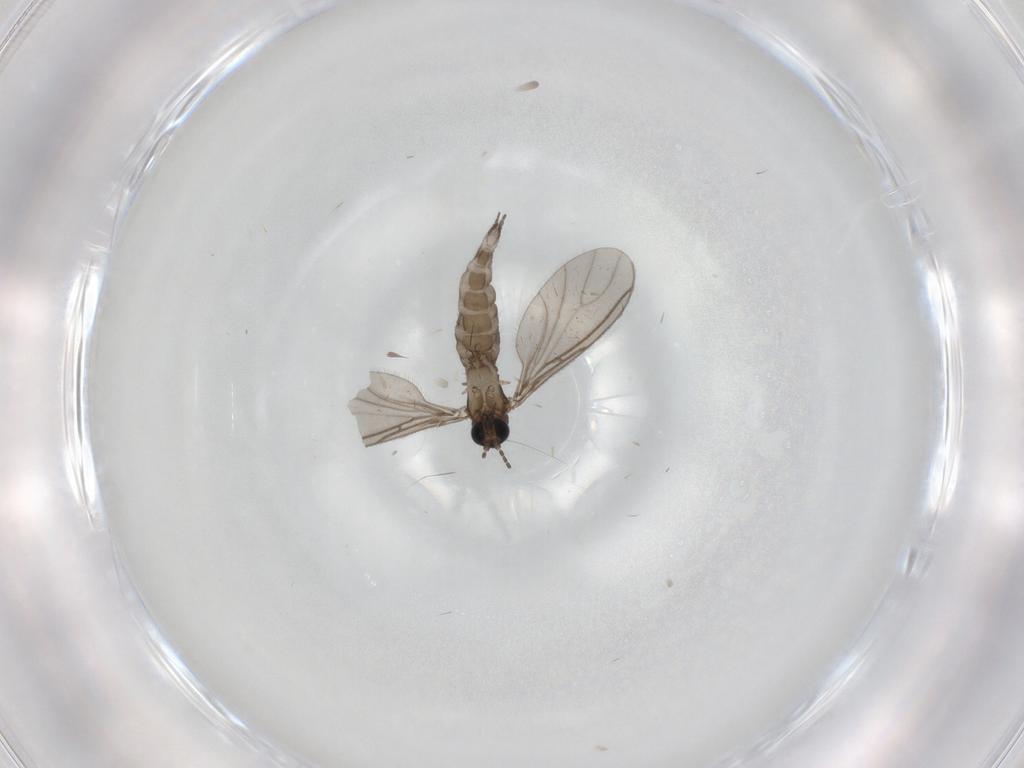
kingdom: Animalia
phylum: Arthropoda
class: Insecta
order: Diptera
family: Sciaridae
